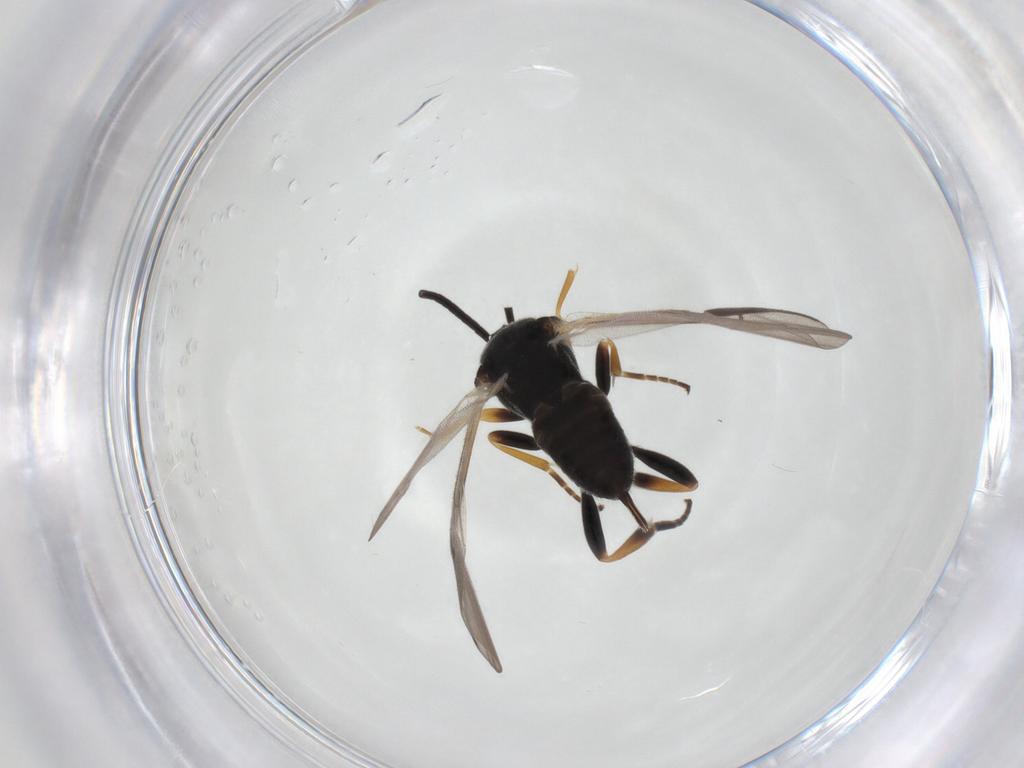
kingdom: Animalia
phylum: Arthropoda
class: Insecta
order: Hymenoptera
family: Braconidae
